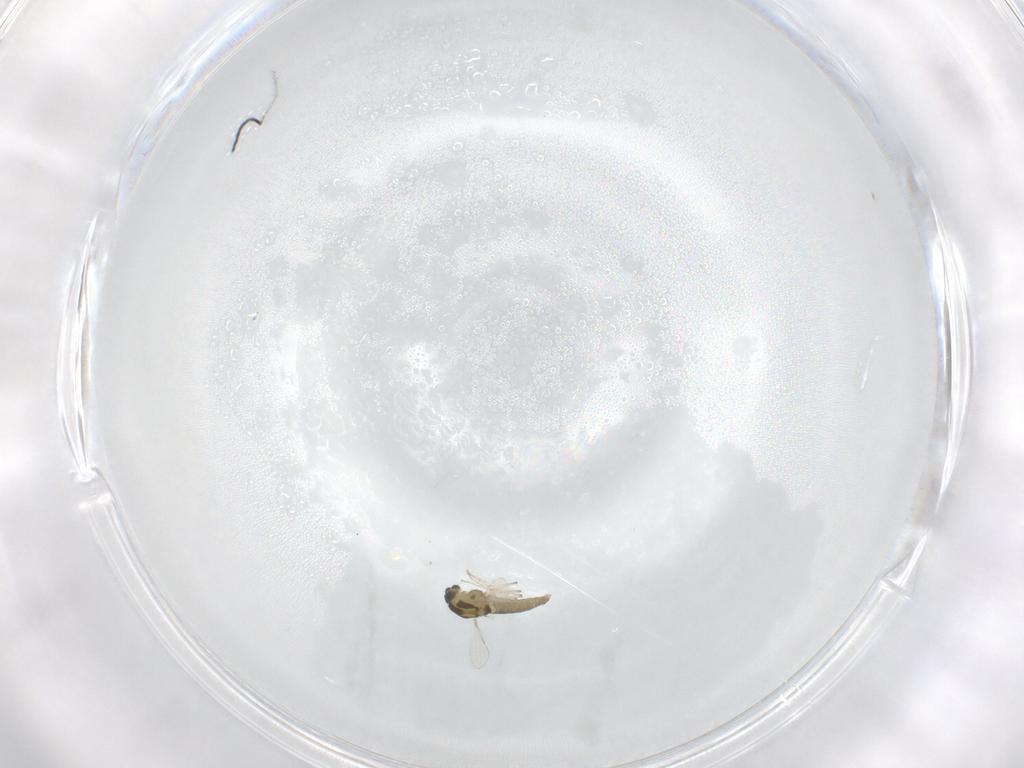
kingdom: Animalia
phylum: Arthropoda
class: Insecta
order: Diptera
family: Chironomidae
